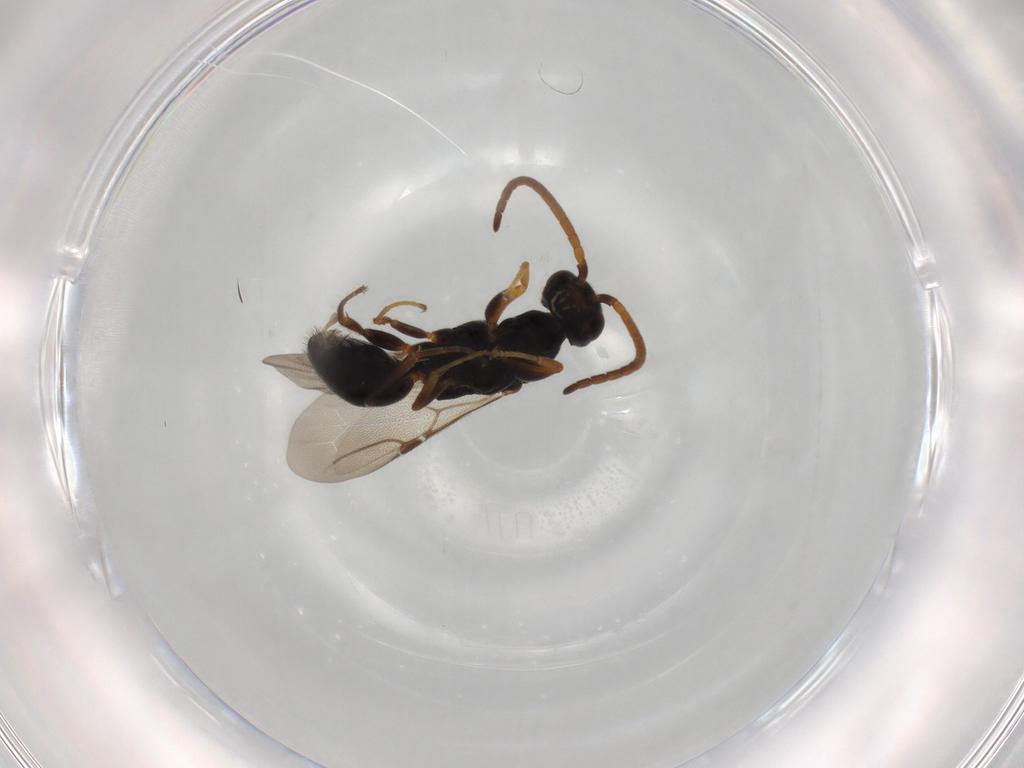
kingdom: Animalia
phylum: Arthropoda
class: Insecta
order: Hymenoptera
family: Bethylidae
